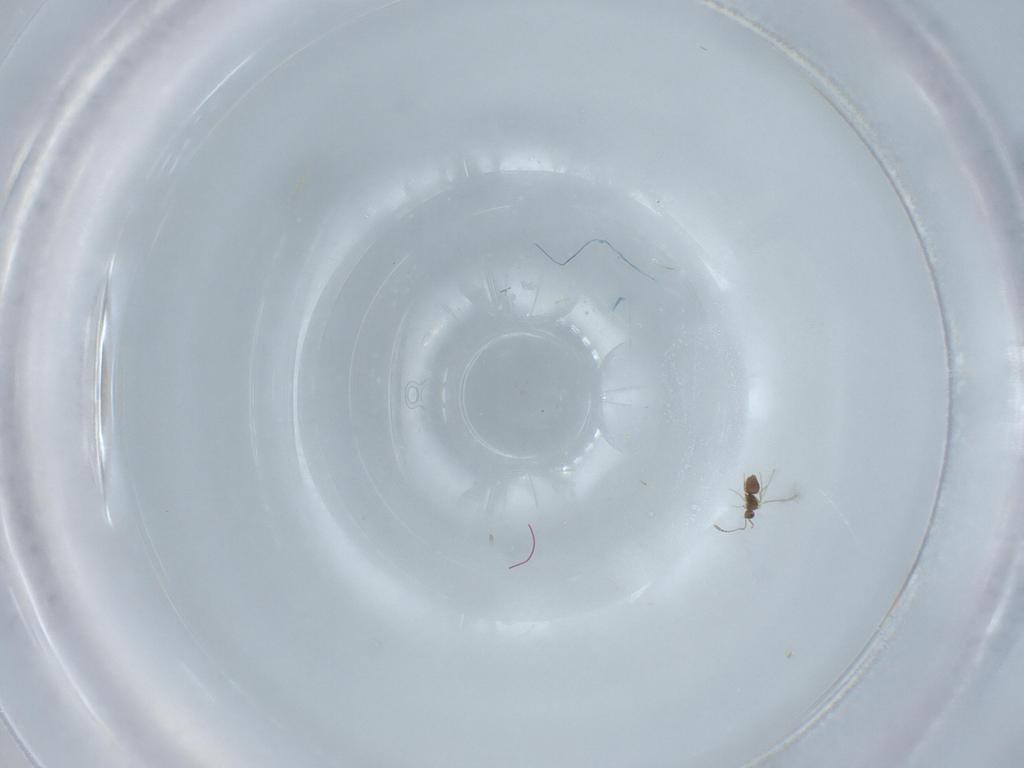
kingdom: Animalia
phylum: Arthropoda
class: Insecta
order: Hymenoptera
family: Mymaridae
